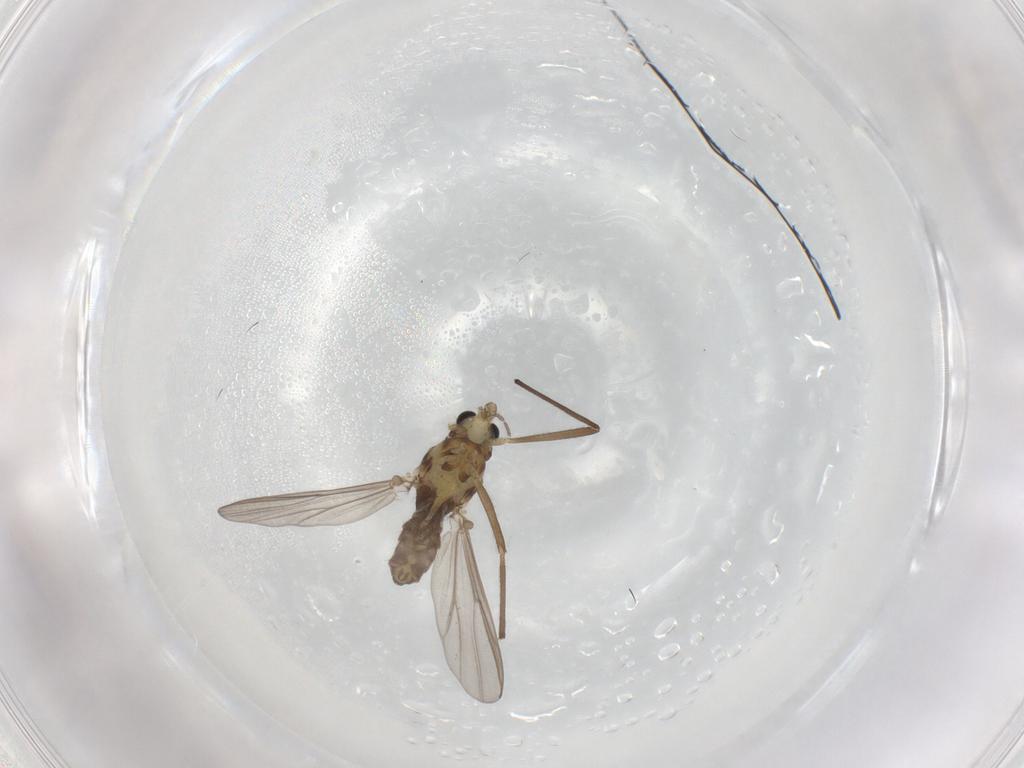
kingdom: Animalia
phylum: Arthropoda
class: Insecta
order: Diptera
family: Chironomidae
